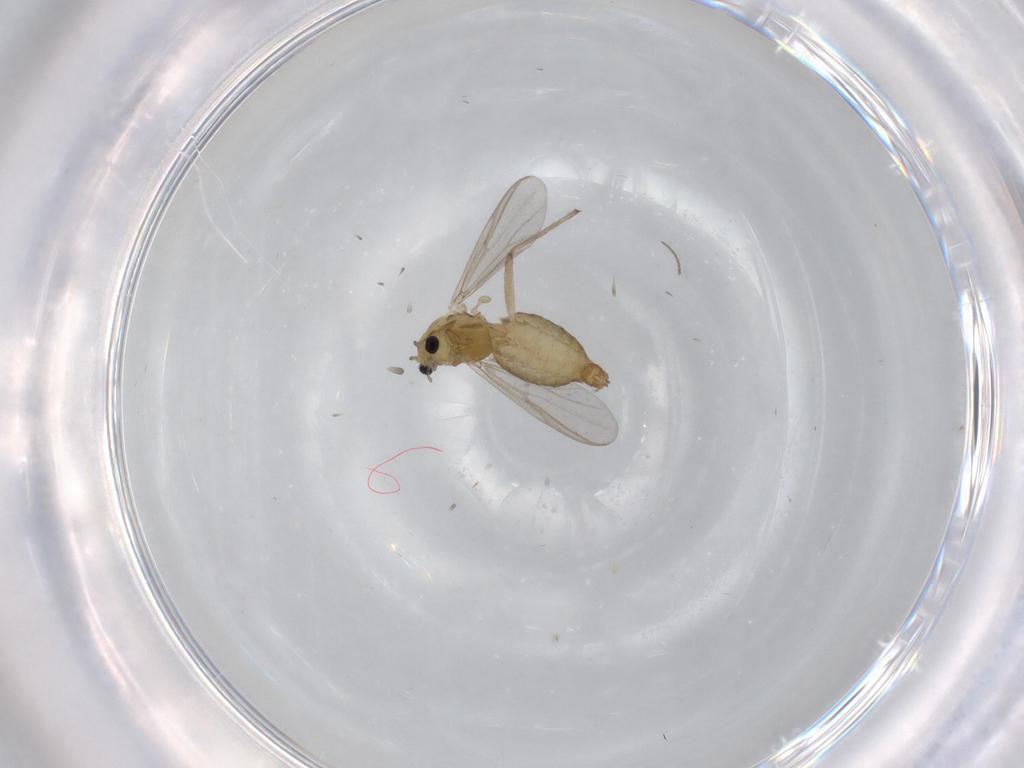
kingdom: Animalia
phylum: Arthropoda
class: Insecta
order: Diptera
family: Chironomidae
